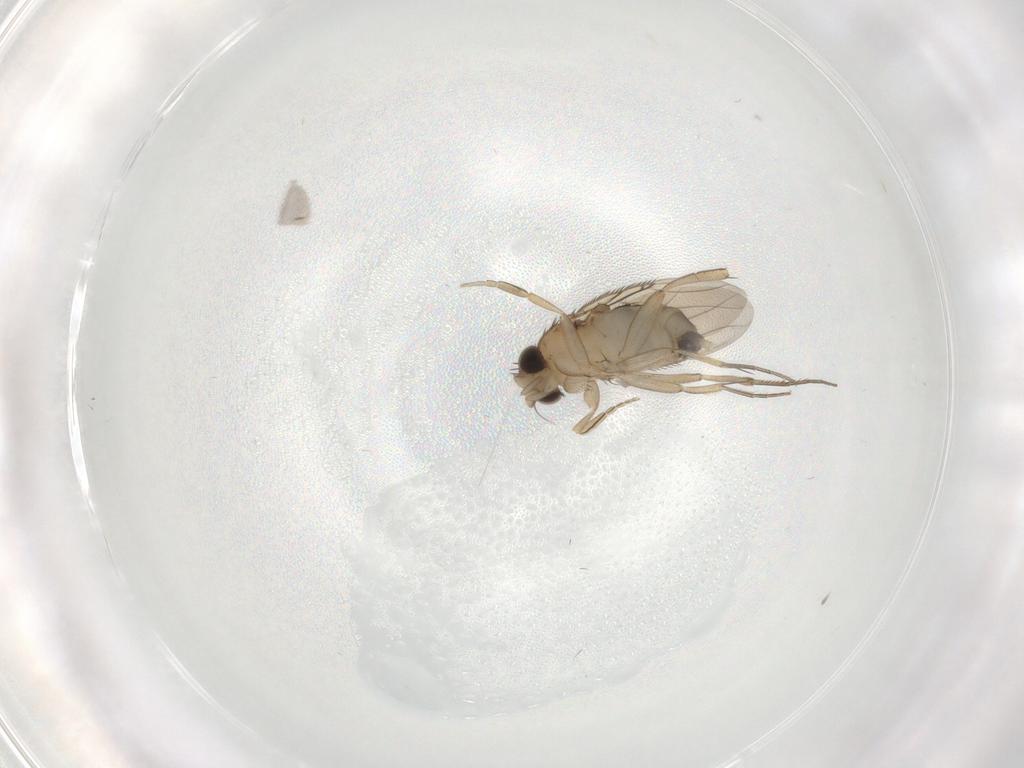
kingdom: Animalia
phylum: Arthropoda
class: Insecta
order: Diptera
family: Phoridae
